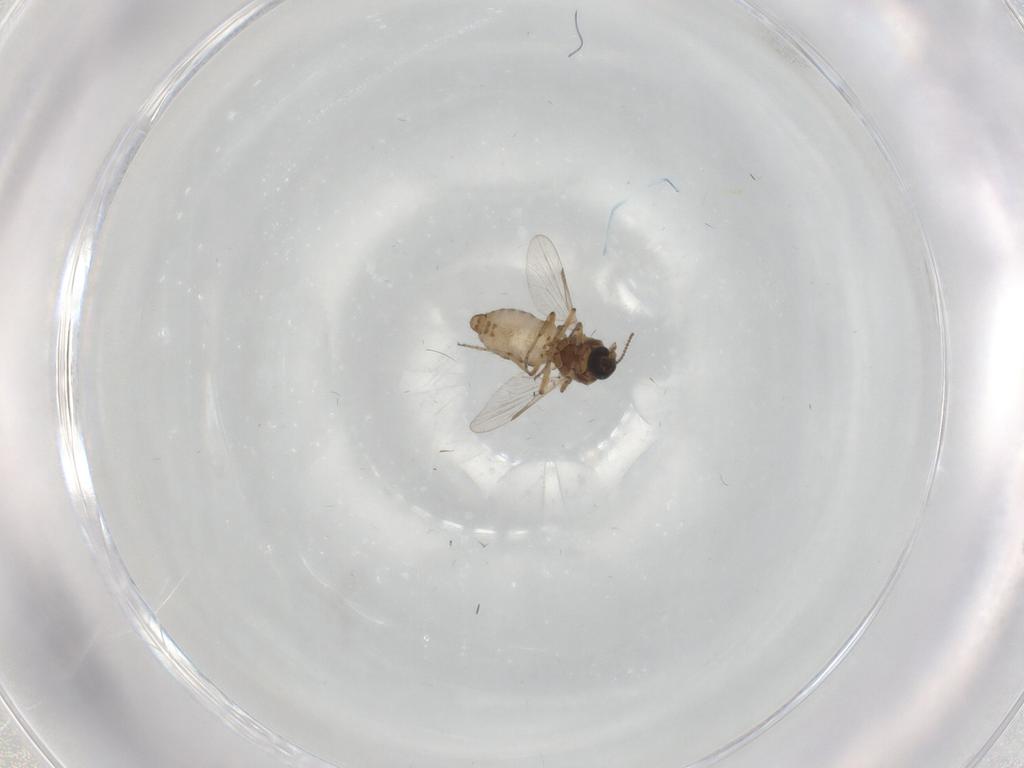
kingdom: Animalia
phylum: Arthropoda
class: Insecta
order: Diptera
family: Ceratopogonidae
